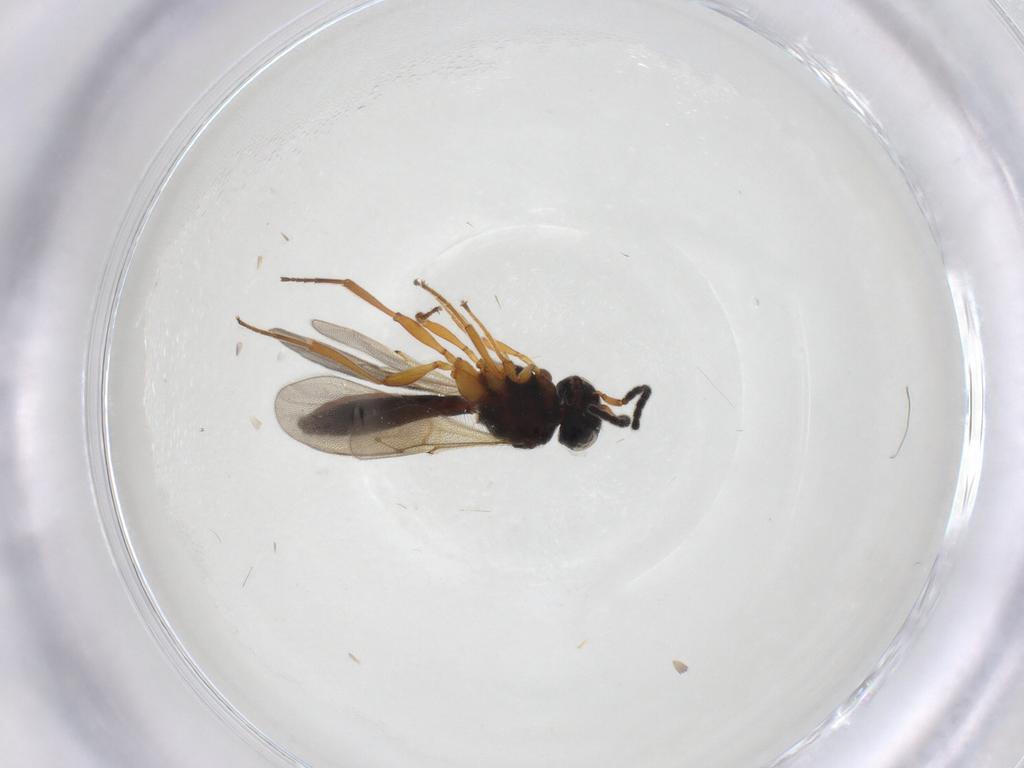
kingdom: Animalia
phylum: Arthropoda
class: Insecta
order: Hymenoptera
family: Scelionidae
